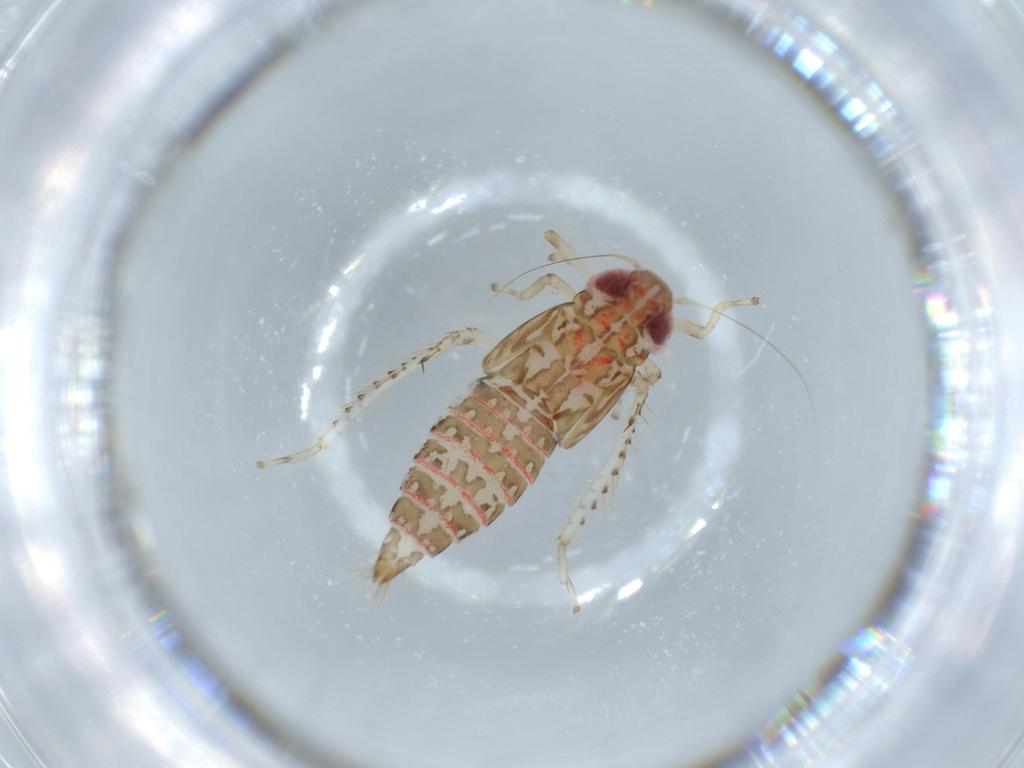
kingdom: Animalia
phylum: Arthropoda
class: Insecta
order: Hemiptera
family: Cicadellidae
